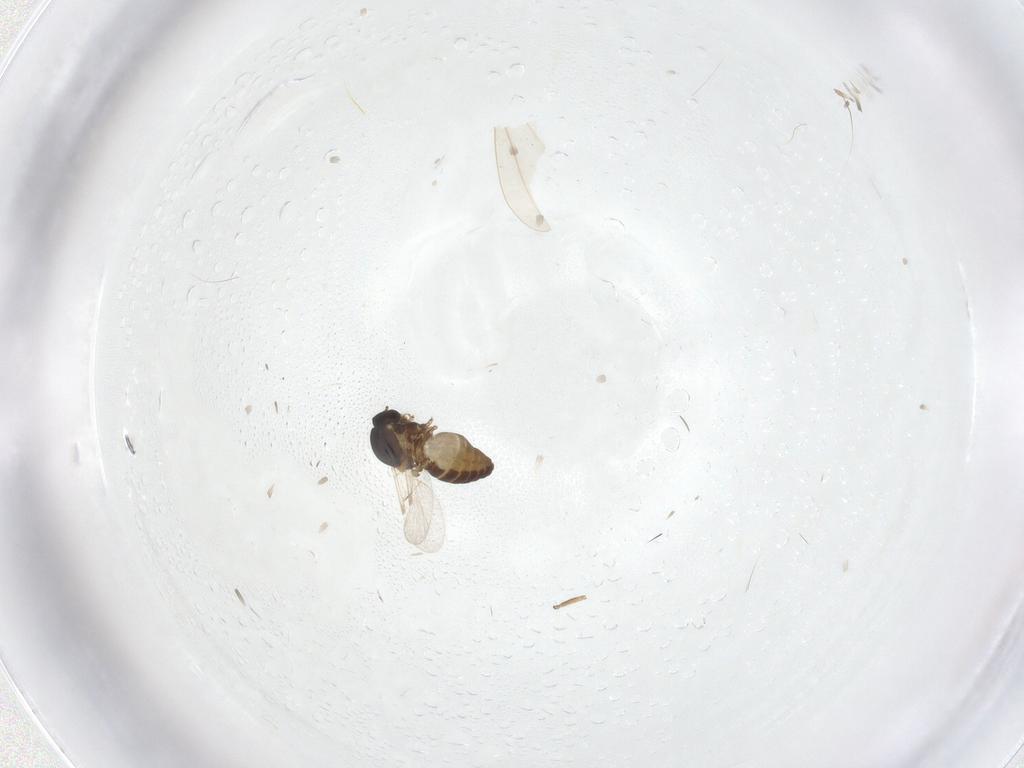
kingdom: Animalia
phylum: Arthropoda
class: Insecta
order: Diptera
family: Ceratopogonidae
